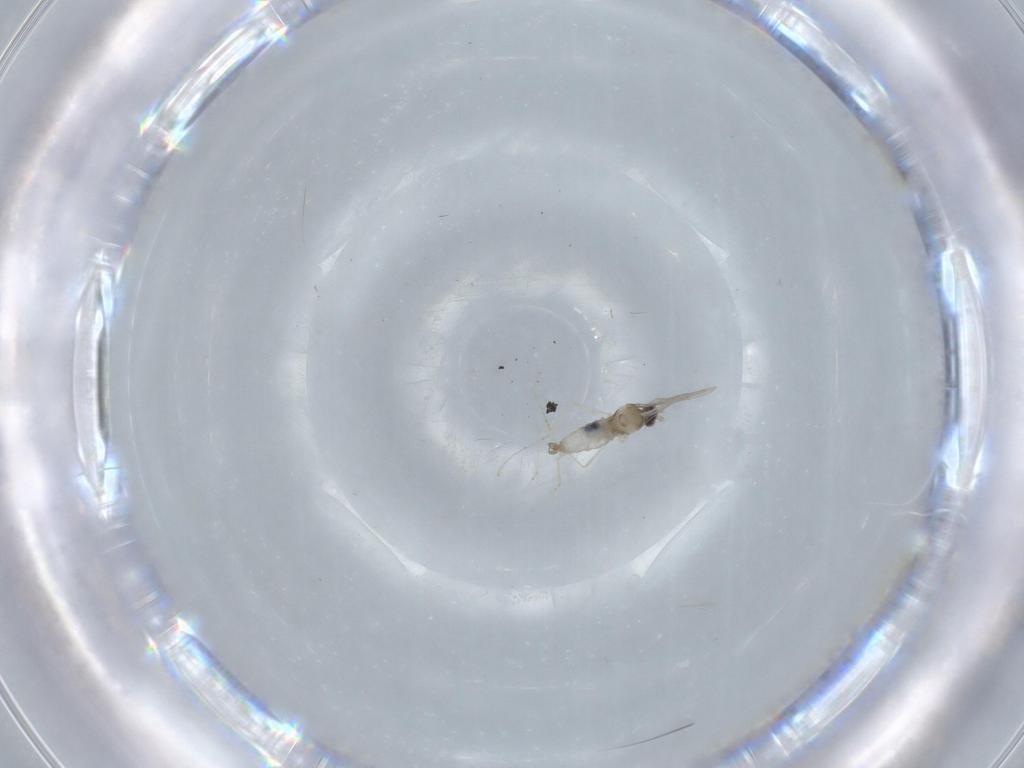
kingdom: Animalia
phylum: Arthropoda
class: Insecta
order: Diptera
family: Cecidomyiidae
